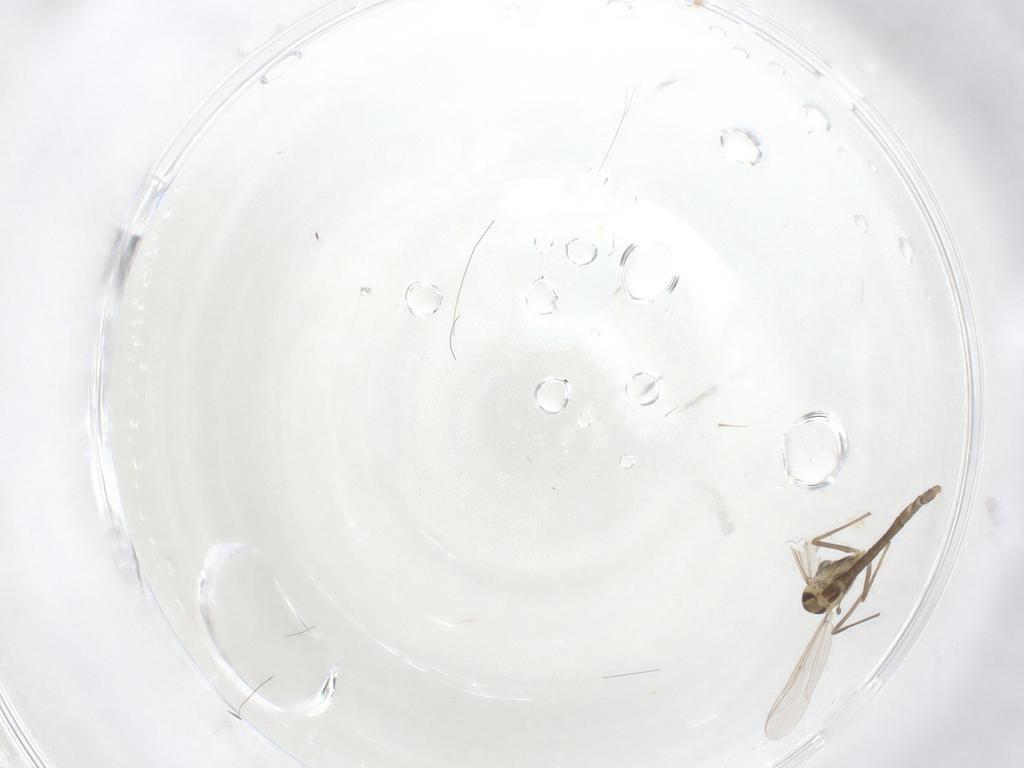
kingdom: Animalia
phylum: Arthropoda
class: Insecta
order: Diptera
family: Chironomidae
